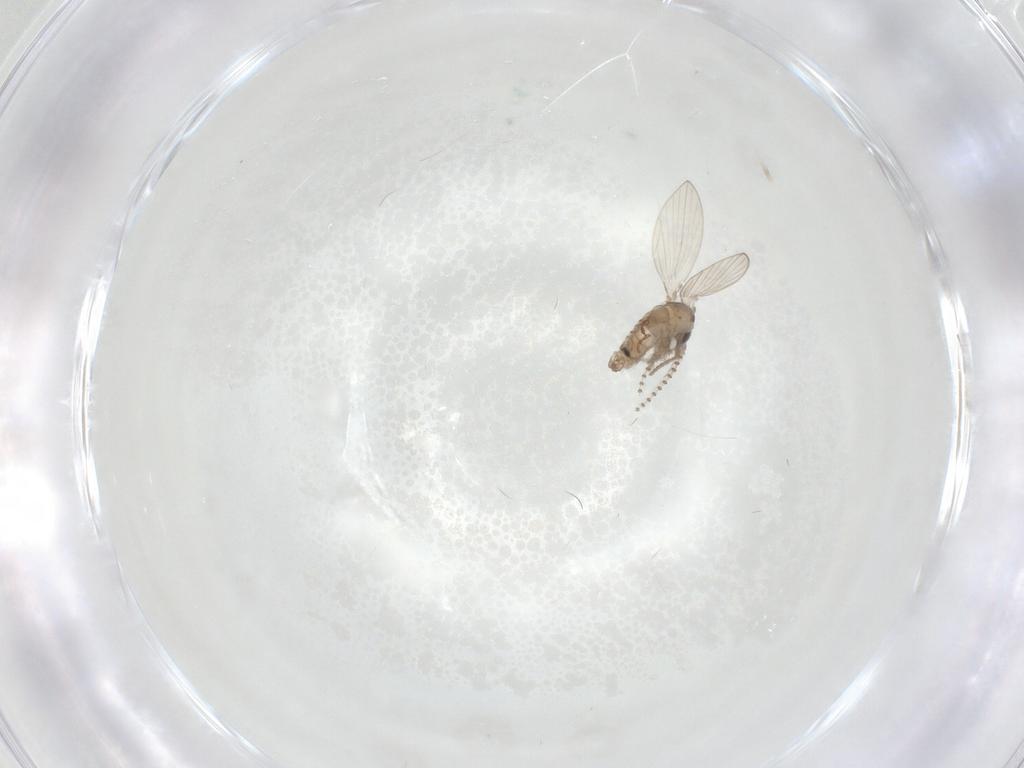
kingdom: Animalia
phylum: Arthropoda
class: Insecta
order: Diptera
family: Psychodidae
